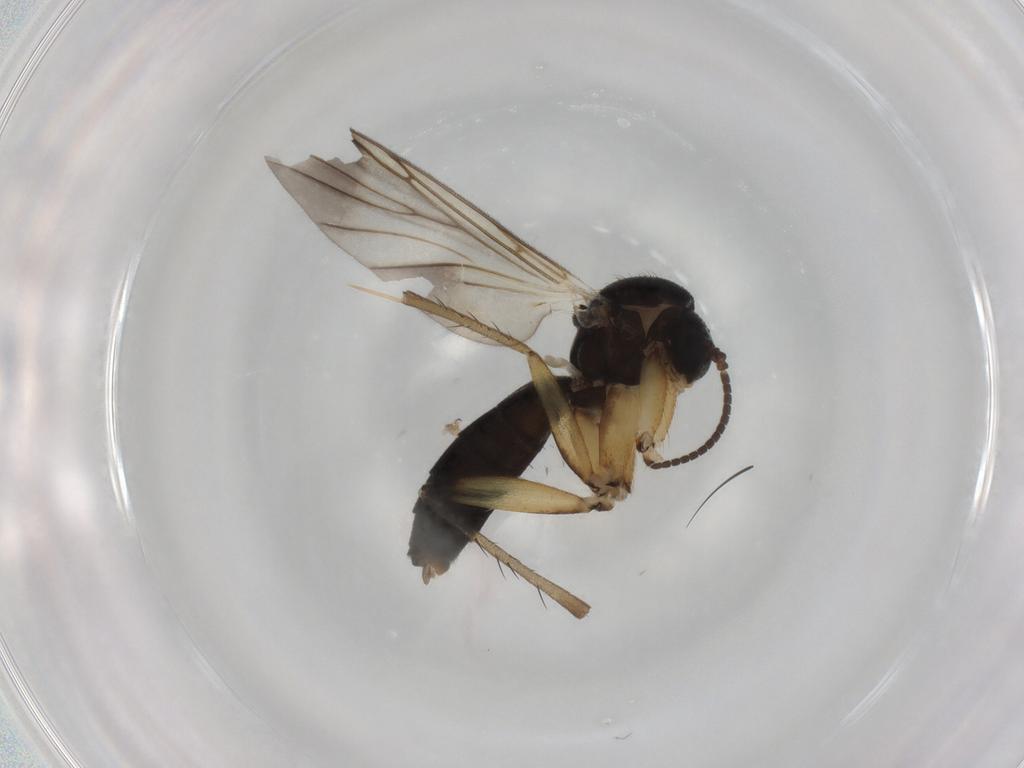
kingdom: Animalia
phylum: Arthropoda
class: Insecta
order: Diptera
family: Mycetophilidae
